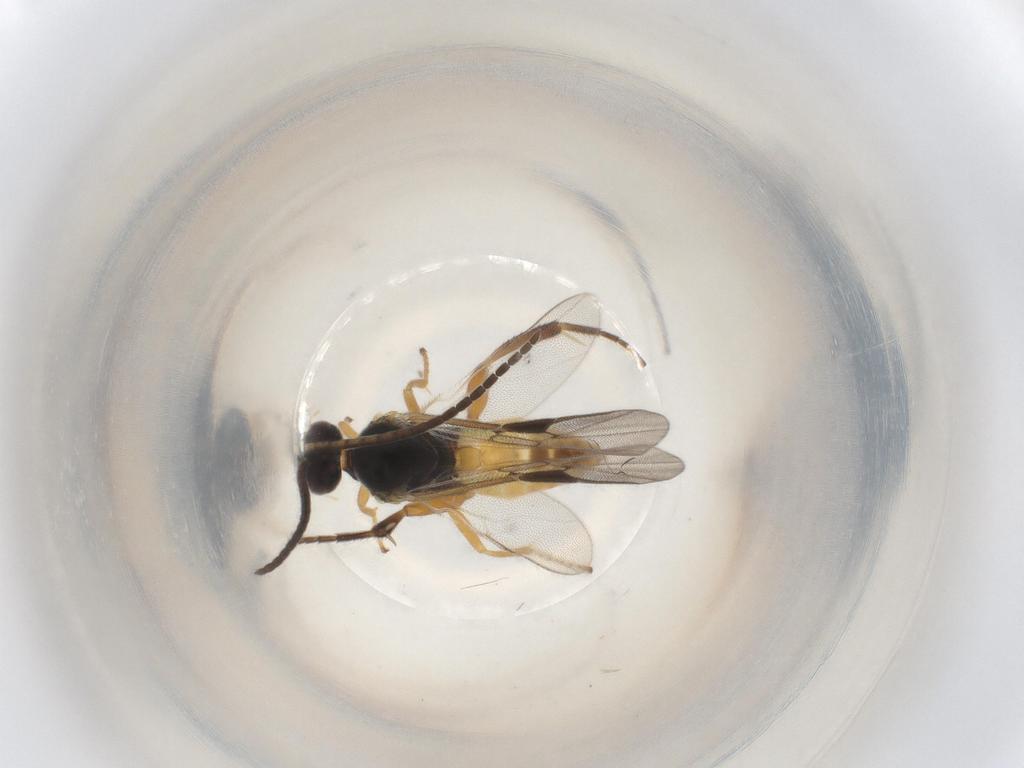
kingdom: Animalia
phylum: Arthropoda
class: Insecta
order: Hymenoptera
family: Braconidae
